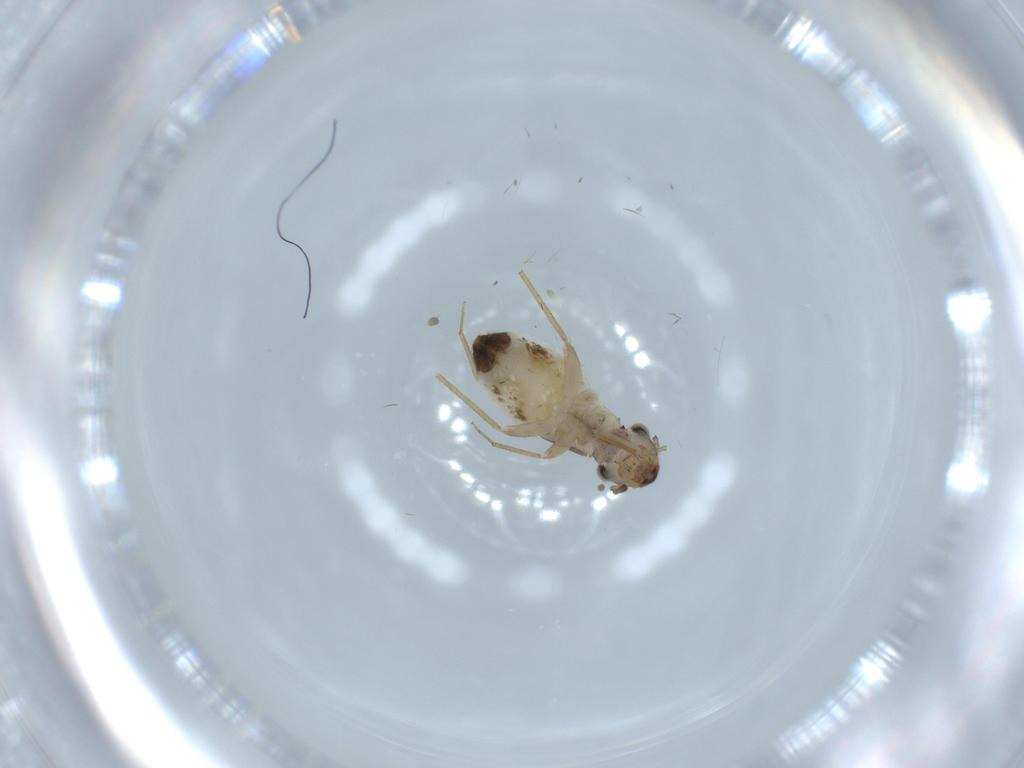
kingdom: Animalia
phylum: Arthropoda
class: Insecta
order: Psocodea
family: Lepidopsocidae
